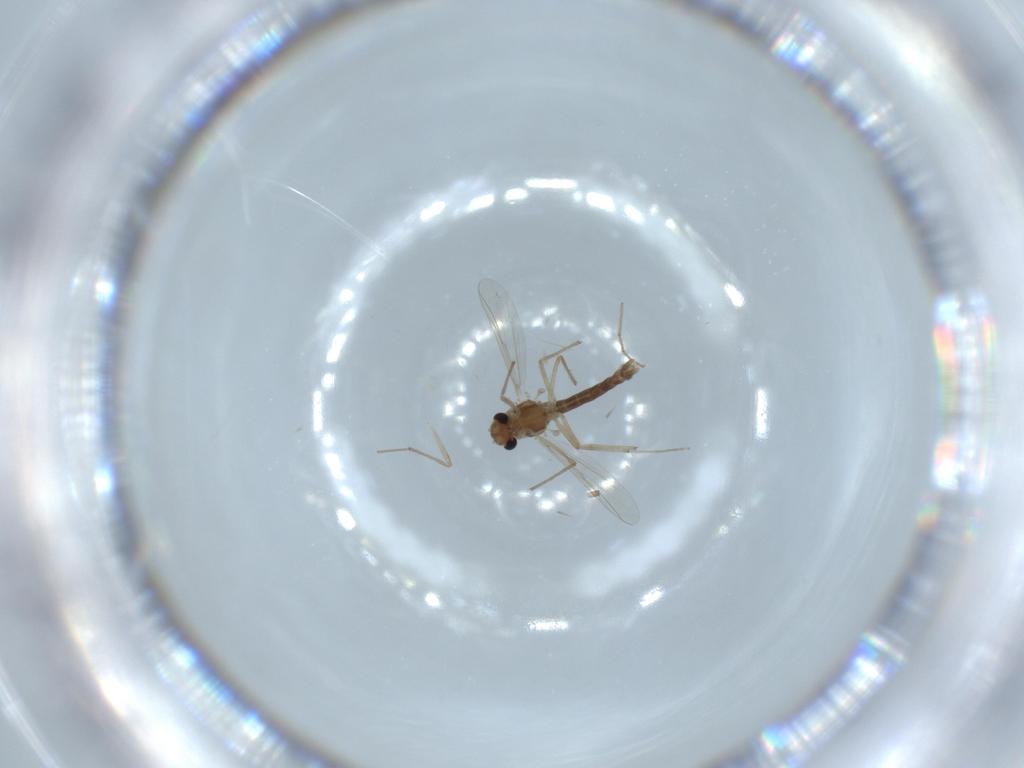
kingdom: Animalia
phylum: Arthropoda
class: Insecta
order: Diptera
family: Chironomidae
